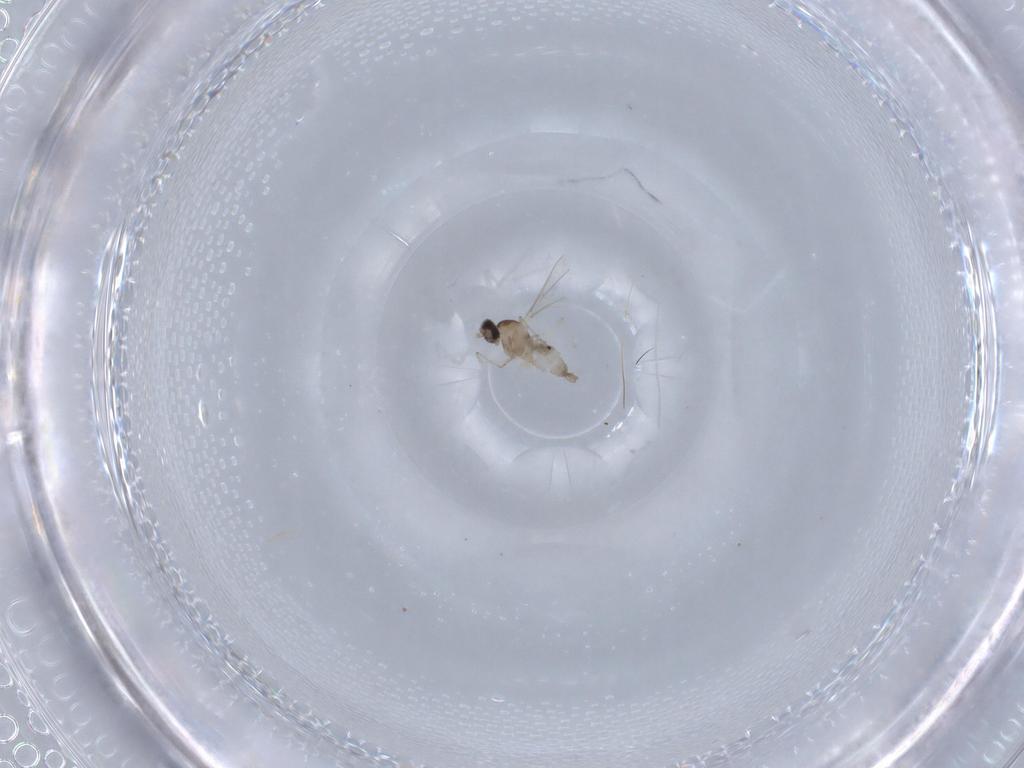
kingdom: Animalia
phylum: Arthropoda
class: Insecta
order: Diptera
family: Cecidomyiidae
